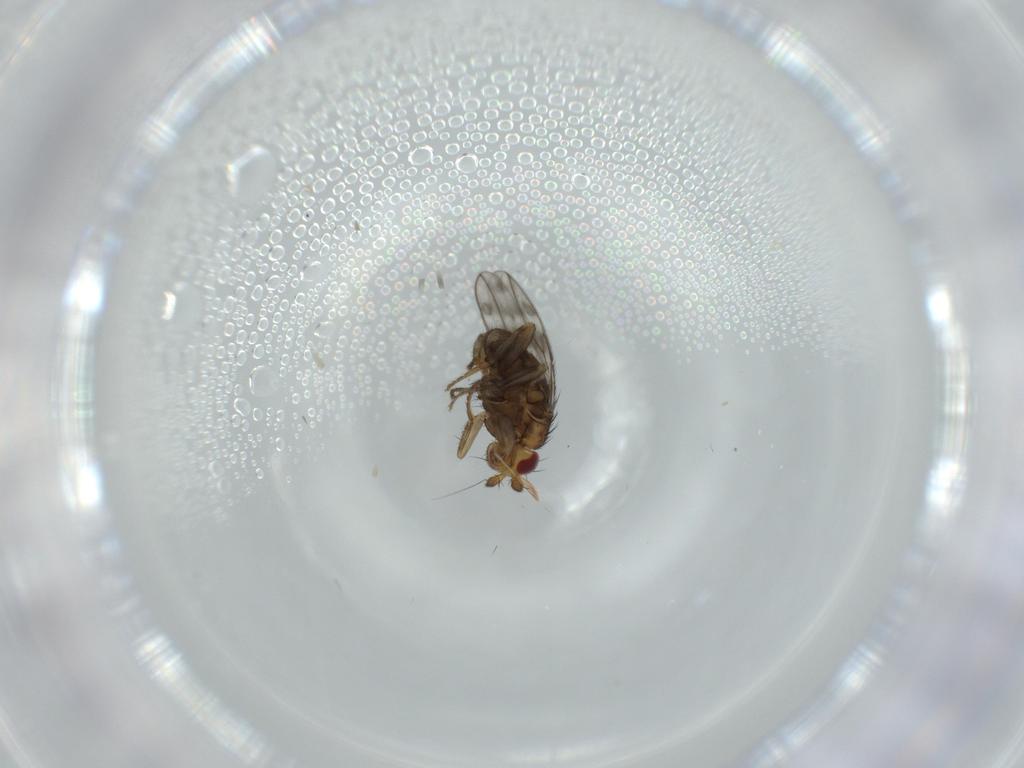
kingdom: Animalia
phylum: Arthropoda
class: Insecta
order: Diptera
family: Sphaeroceridae
